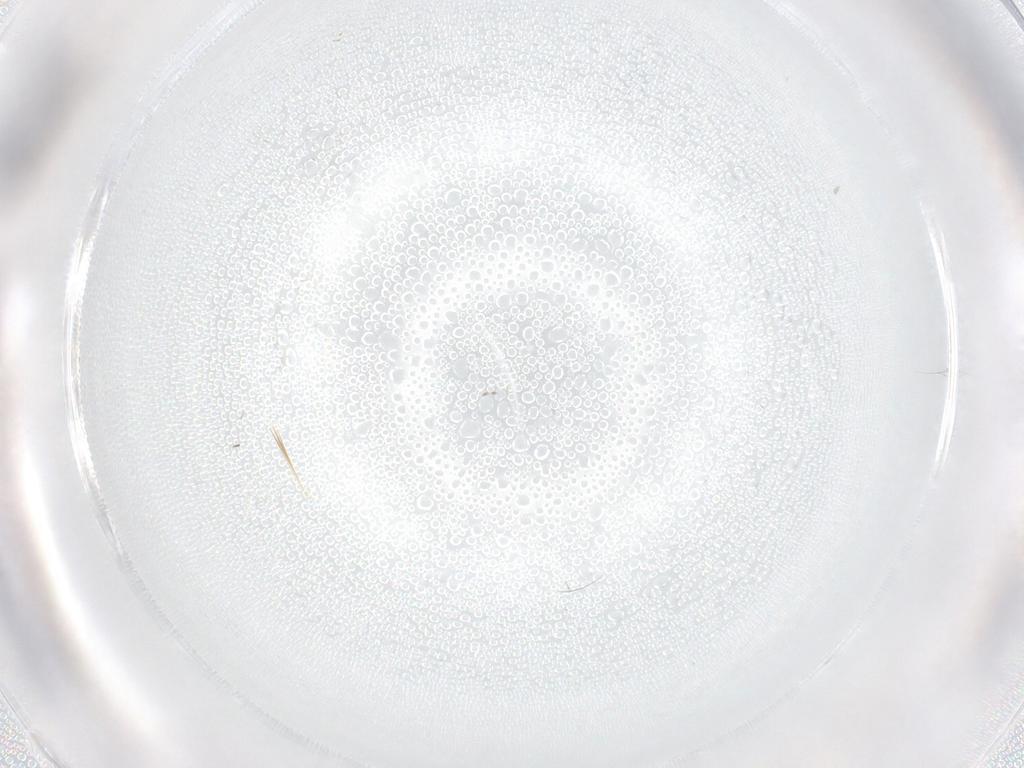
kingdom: Animalia
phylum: Arthropoda
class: Insecta
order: Diptera
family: Cecidomyiidae
